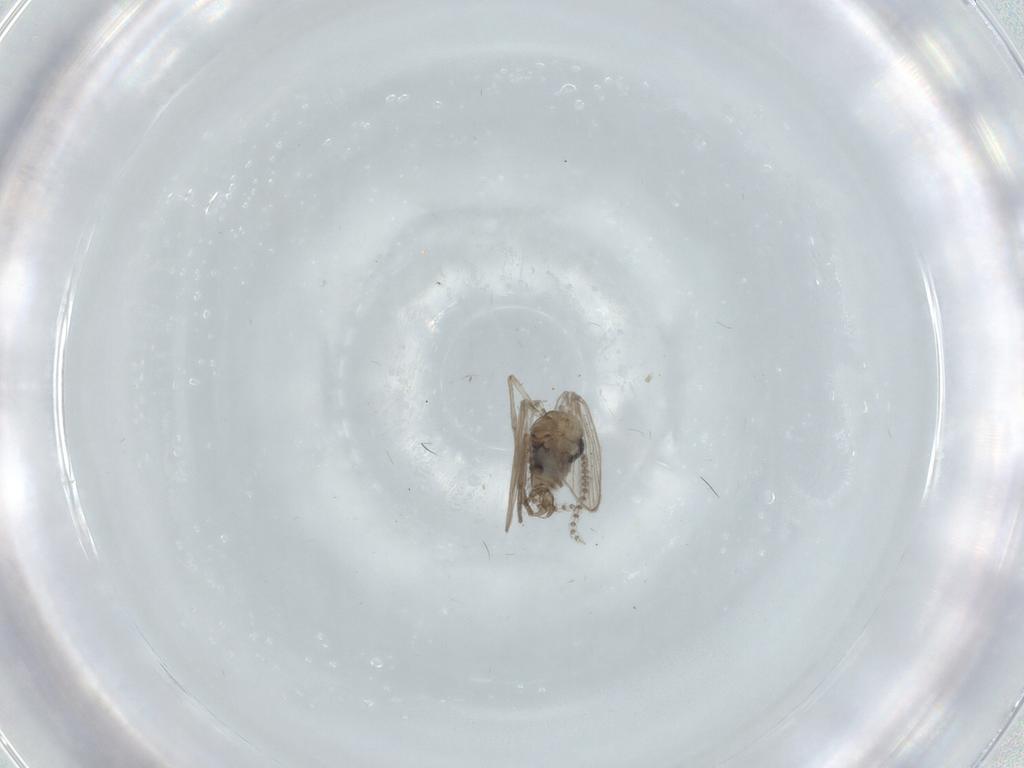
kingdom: Animalia
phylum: Arthropoda
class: Insecta
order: Diptera
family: Psychodidae
